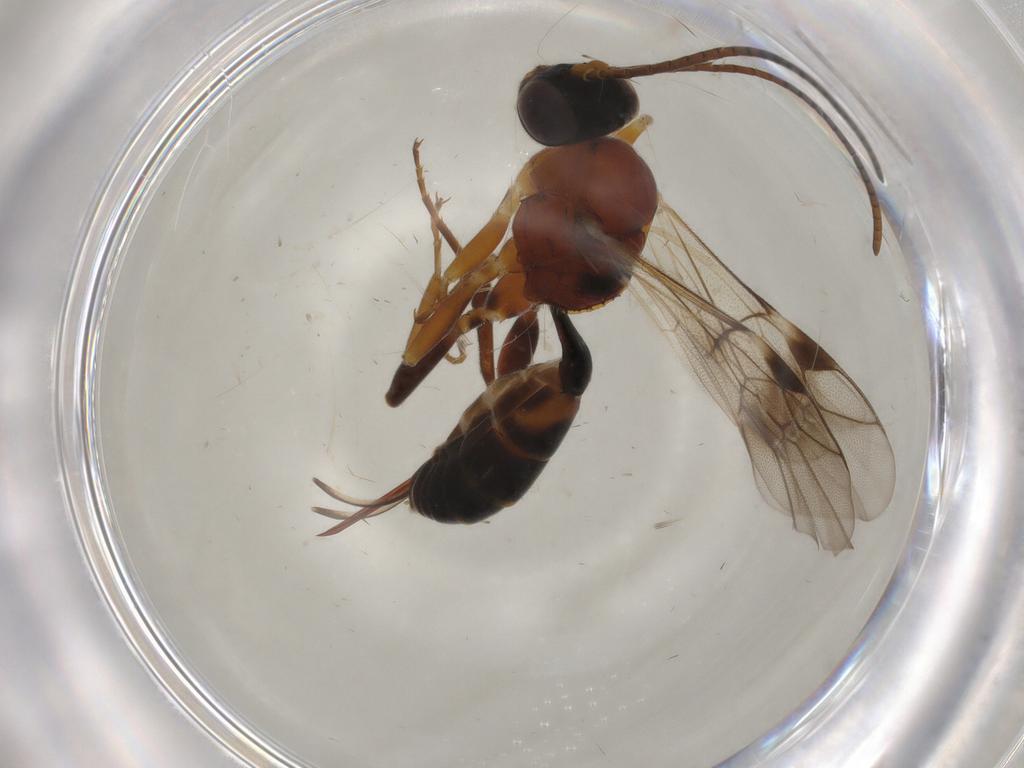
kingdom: Animalia
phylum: Arthropoda
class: Insecta
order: Hymenoptera
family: Ichneumonidae
